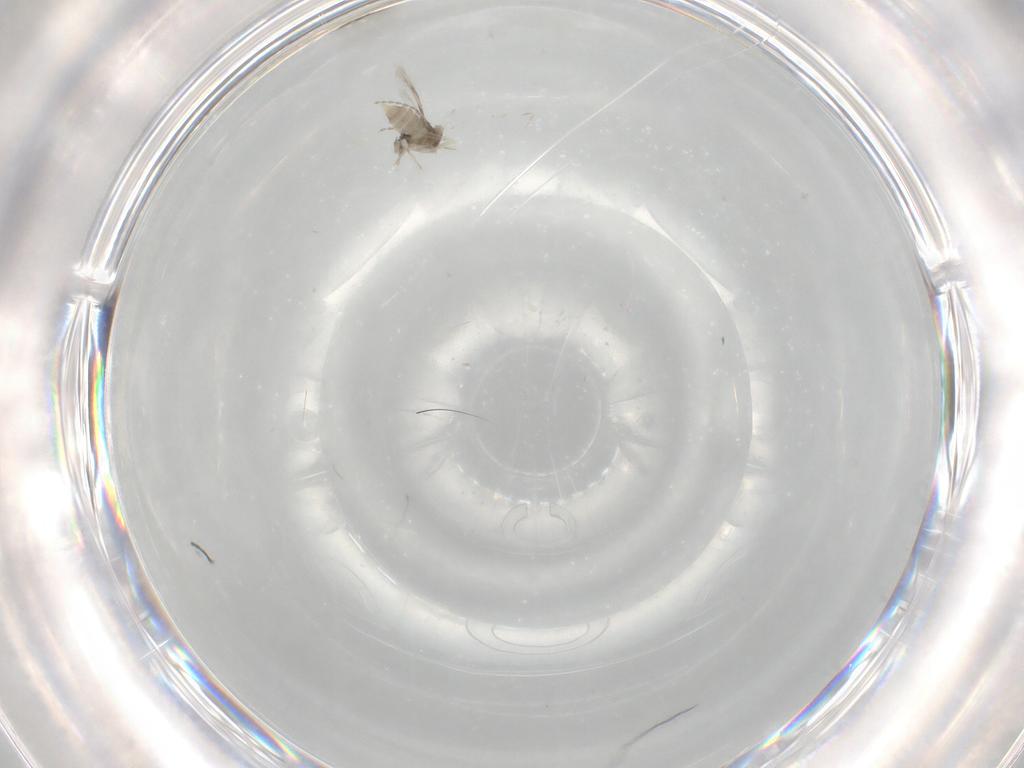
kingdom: Animalia
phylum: Arthropoda
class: Insecta
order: Diptera
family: Cecidomyiidae
